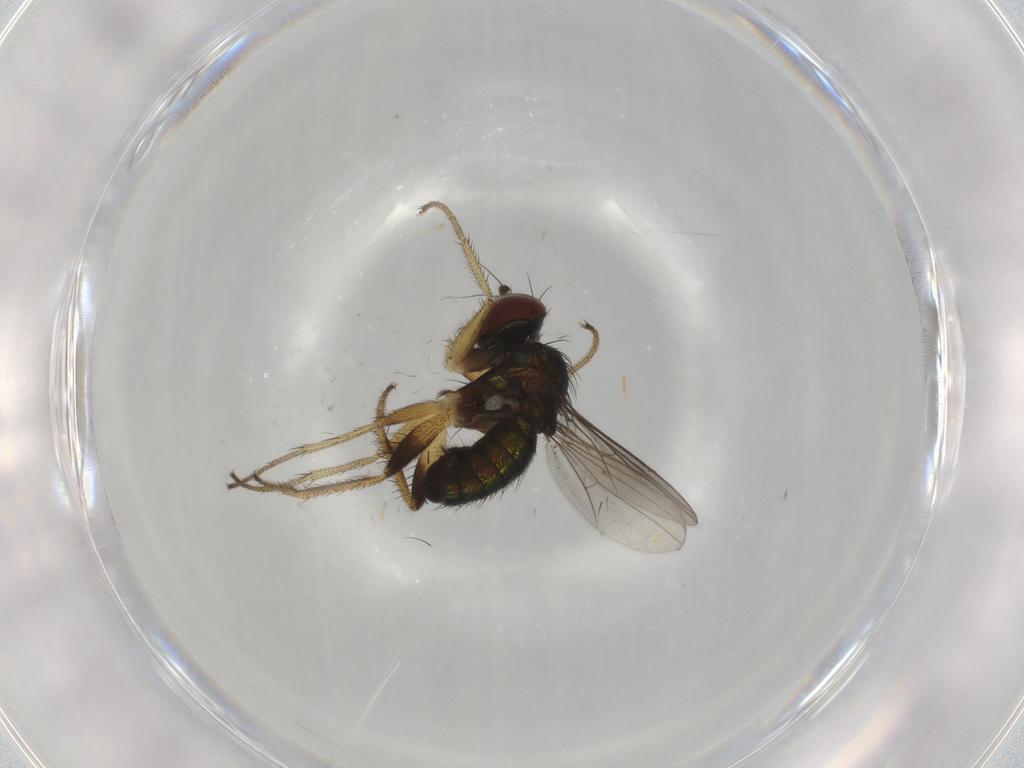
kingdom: Animalia
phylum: Arthropoda
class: Insecta
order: Diptera
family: Dolichopodidae
